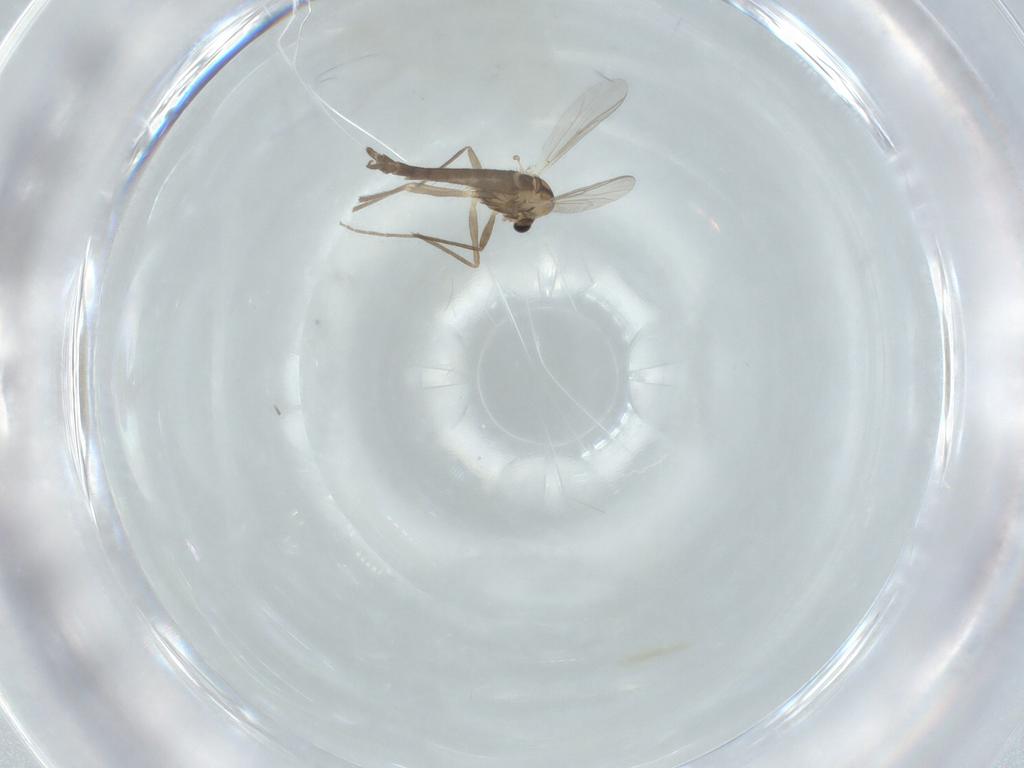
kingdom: Animalia
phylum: Arthropoda
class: Insecta
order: Diptera
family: Chironomidae
